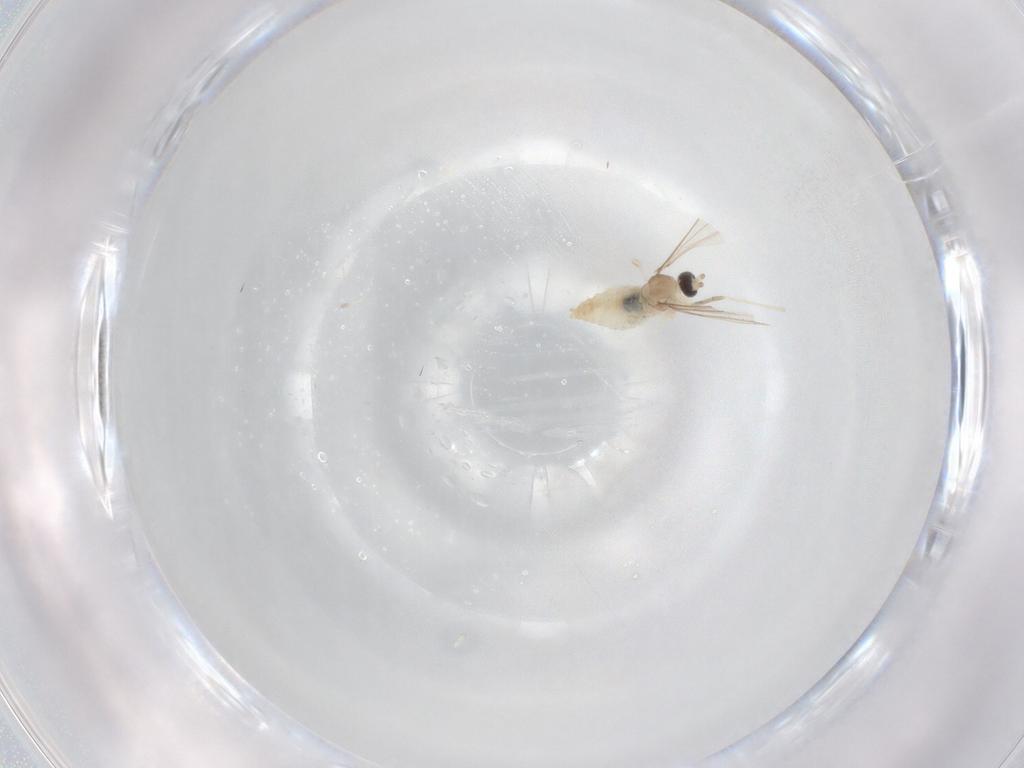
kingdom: Animalia
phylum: Arthropoda
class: Insecta
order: Diptera
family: Cecidomyiidae
